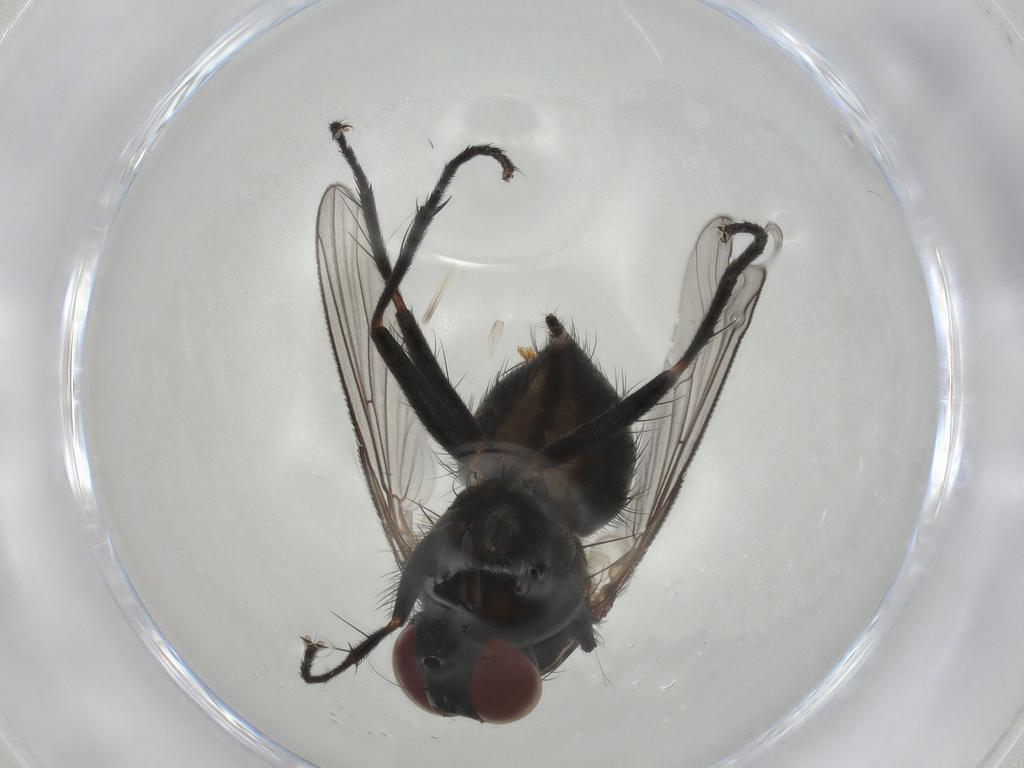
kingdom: Animalia
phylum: Arthropoda
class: Insecta
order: Diptera
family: Muscidae
